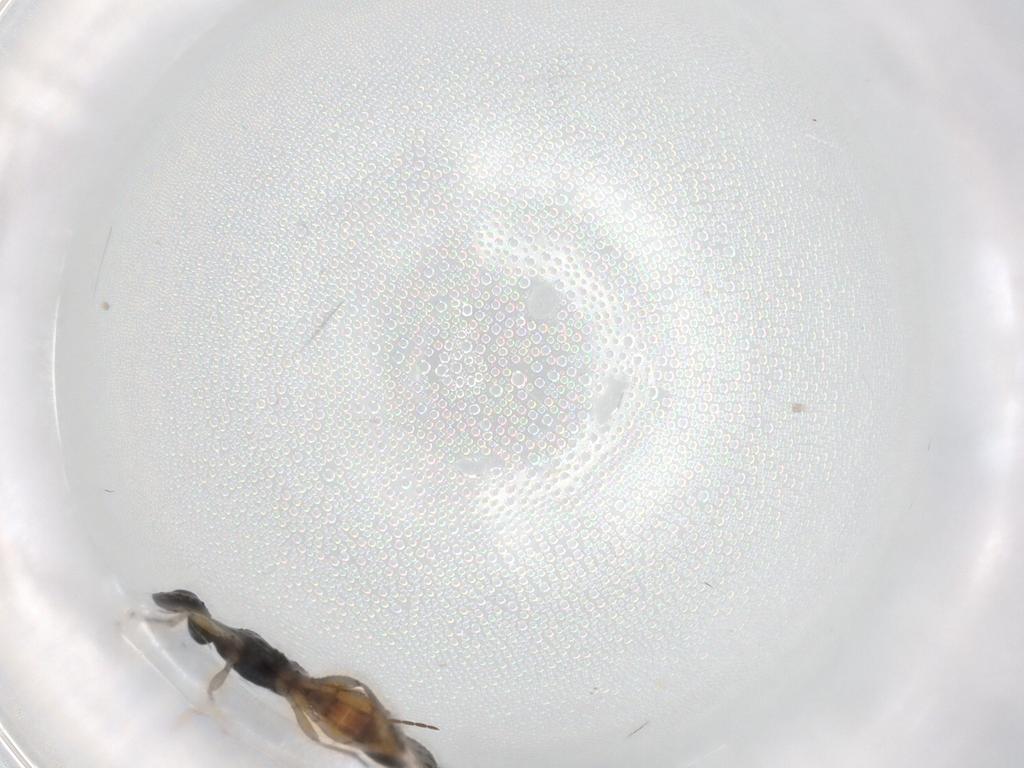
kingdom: Animalia
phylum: Arthropoda
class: Insecta
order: Hymenoptera
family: Braconidae
